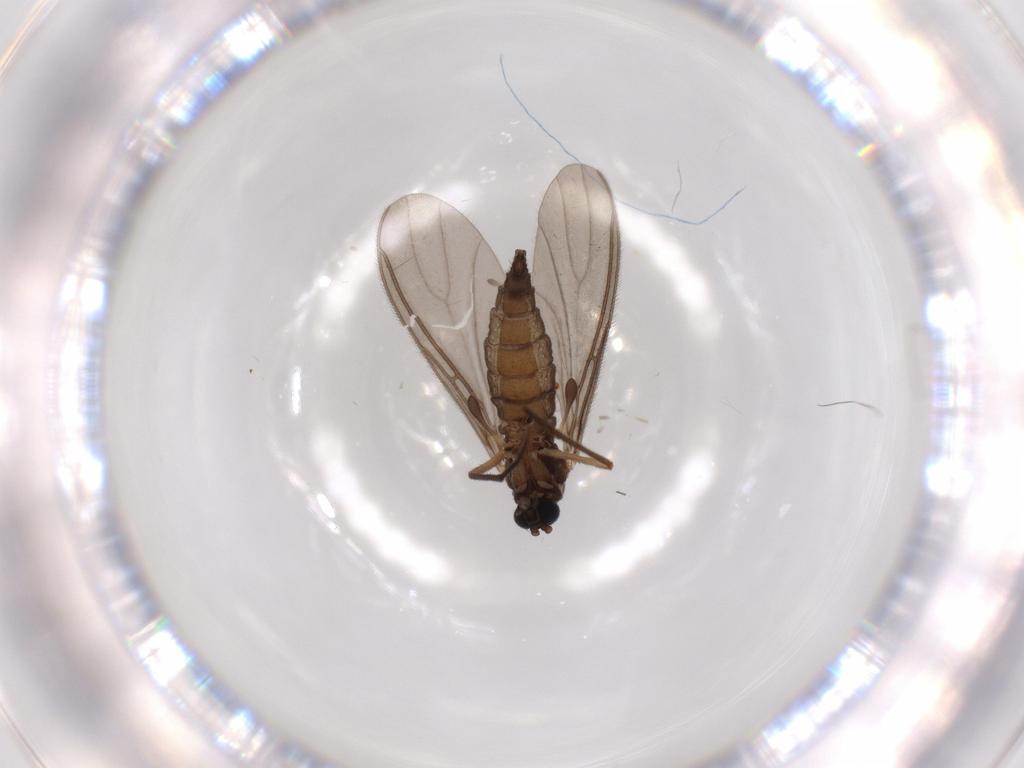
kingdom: Animalia
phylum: Arthropoda
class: Insecta
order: Diptera
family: Sciaridae
